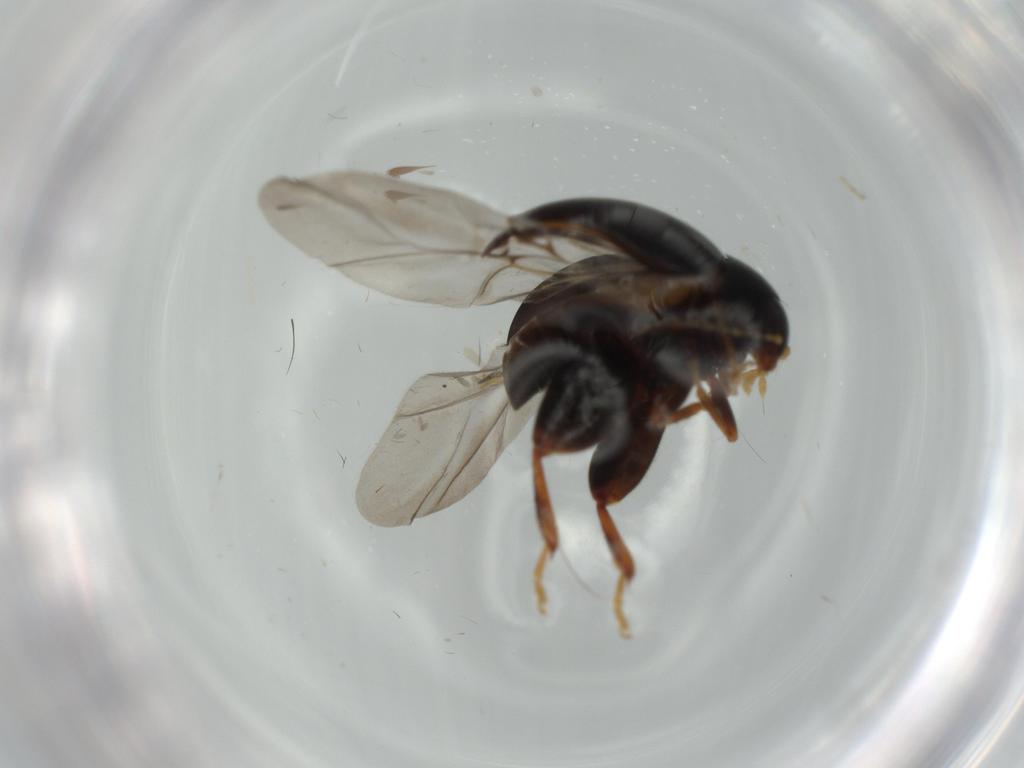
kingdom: Animalia
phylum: Arthropoda
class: Insecta
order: Coleoptera
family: Chrysomelidae
